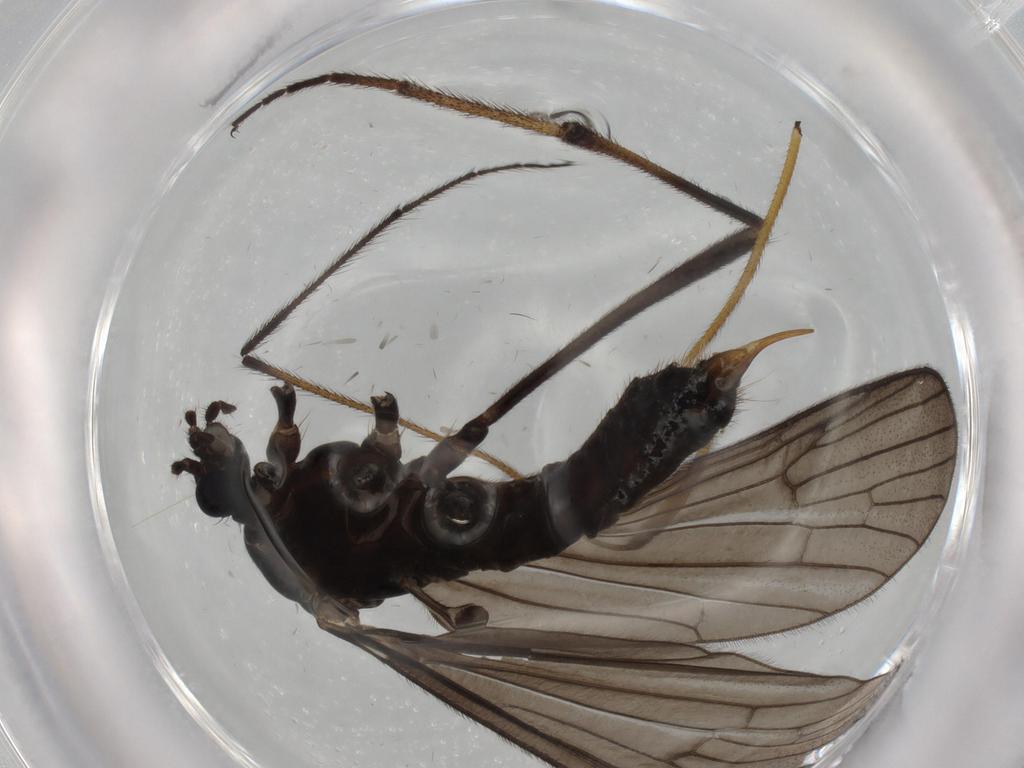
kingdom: Animalia
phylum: Arthropoda
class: Insecta
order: Diptera
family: Limoniidae
